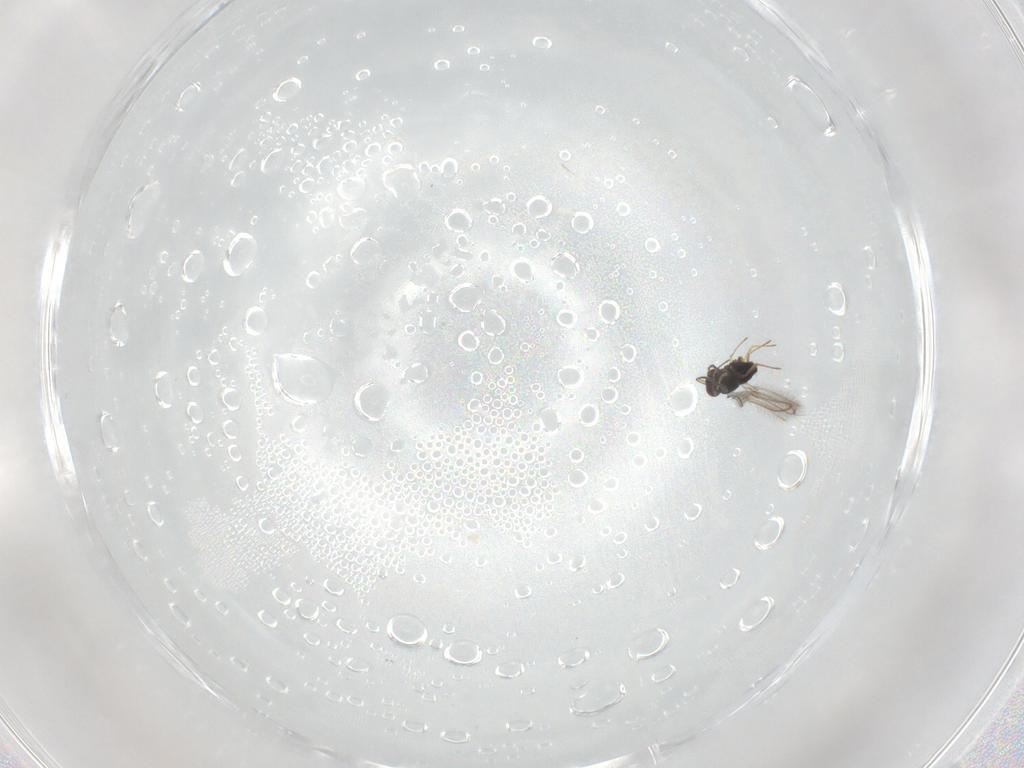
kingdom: Animalia
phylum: Arthropoda
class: Insecta
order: Hymenoptera
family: Mymaridae
